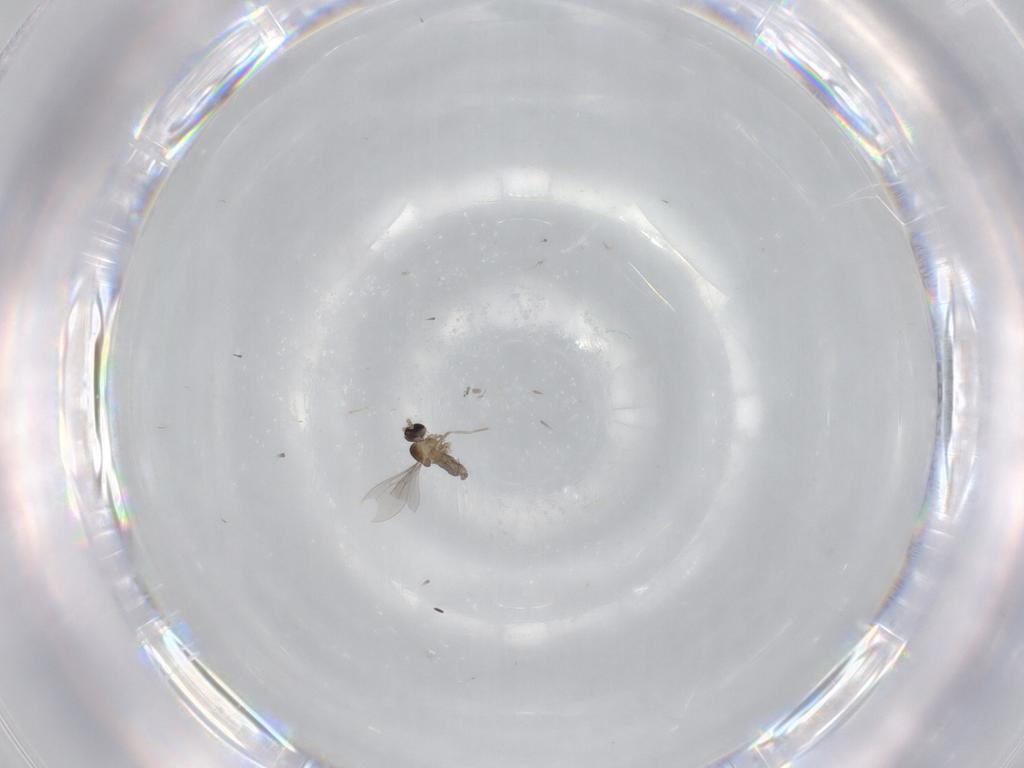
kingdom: Animalia
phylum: Arthropoda
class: Insecta
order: Diptera
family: Cecidomyiidae
